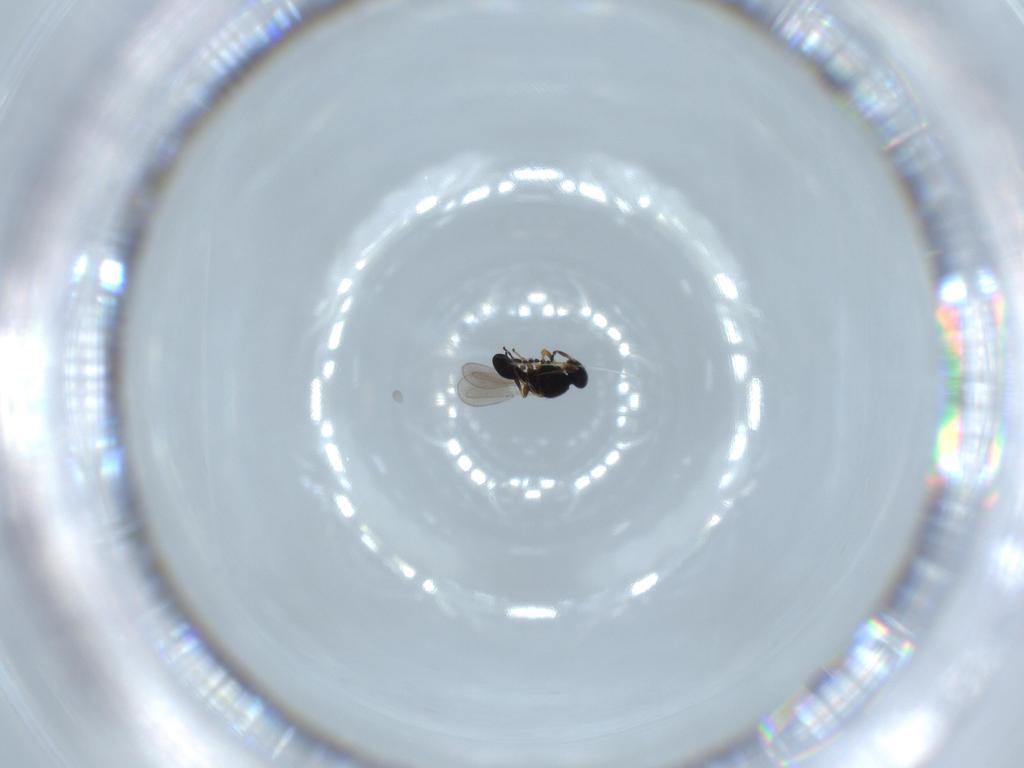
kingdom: Animalia
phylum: Arthropoda
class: Insecta
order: Hymenoptera
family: Platygastridae
